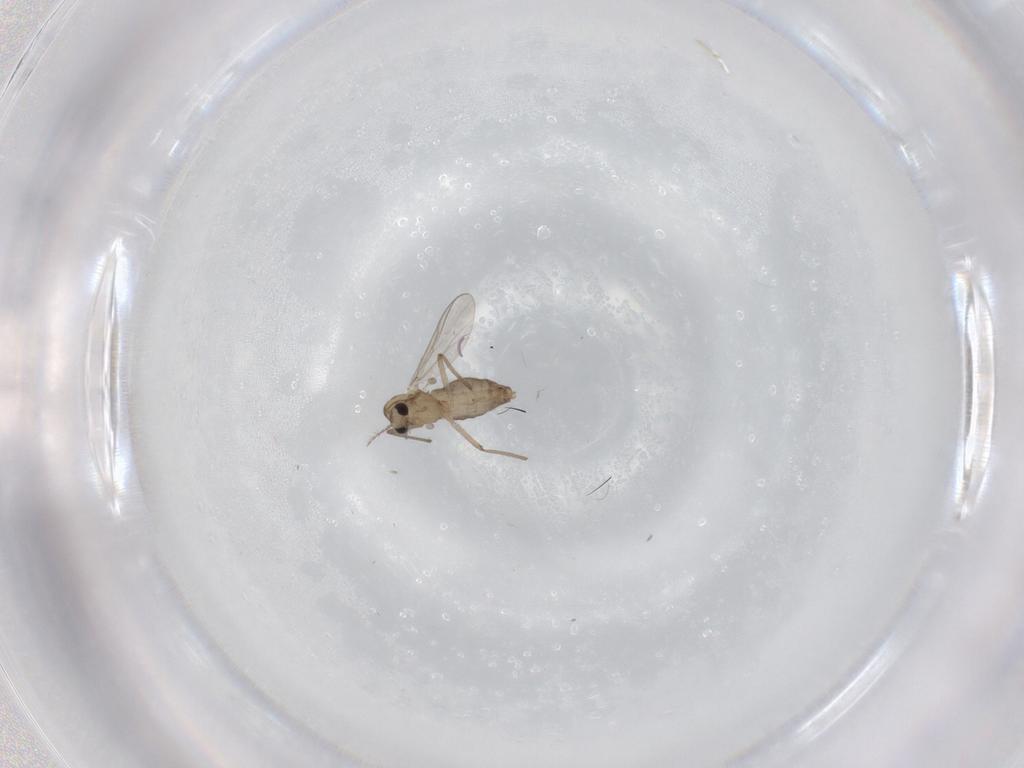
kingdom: Animalia
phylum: Arthropoda
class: Insecta
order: Diptera
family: Chironomidae
